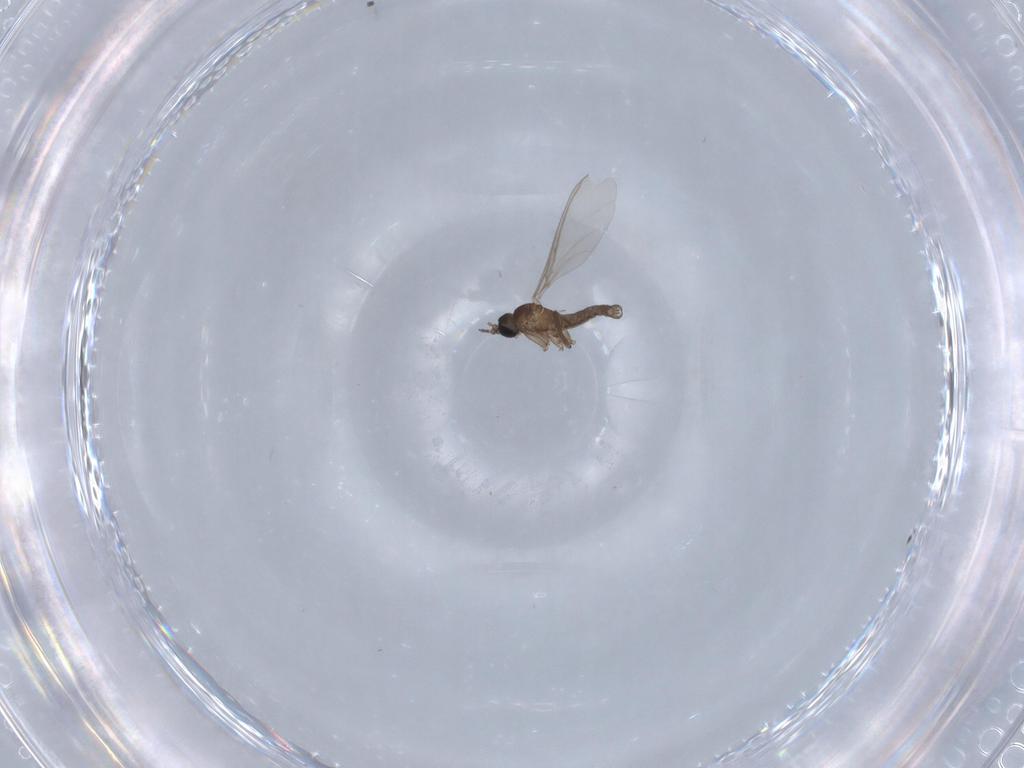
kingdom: Animalia
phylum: Arthropoda
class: Insecta
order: Diptera
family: Sciaridae
